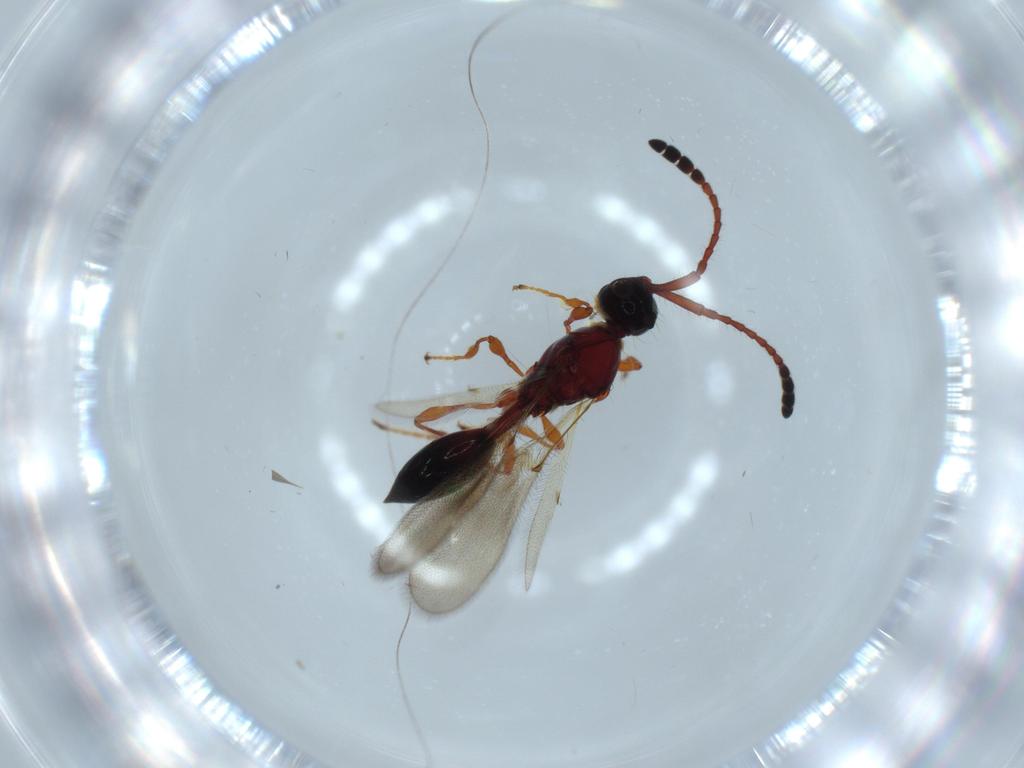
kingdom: Animalia
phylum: Arthropoda
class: Insecta
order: Hymenoptera
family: Diapriidae
